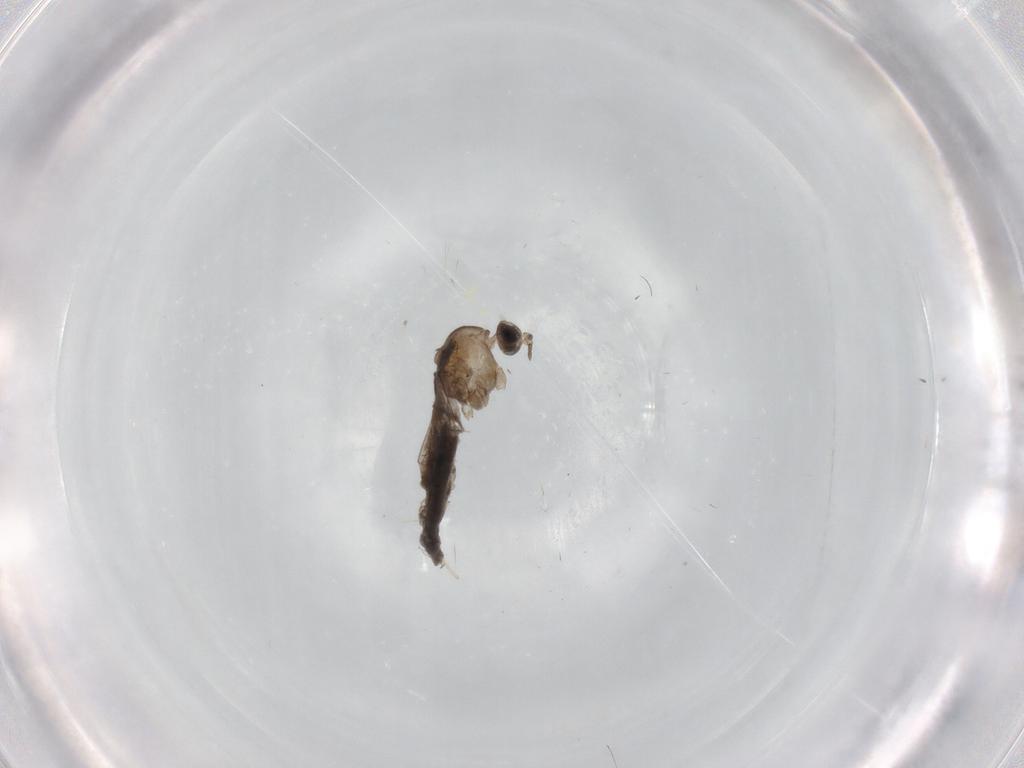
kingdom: Animalia
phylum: Arthropoda
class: Insecta
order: Diptera
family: Cecidomyiidae
